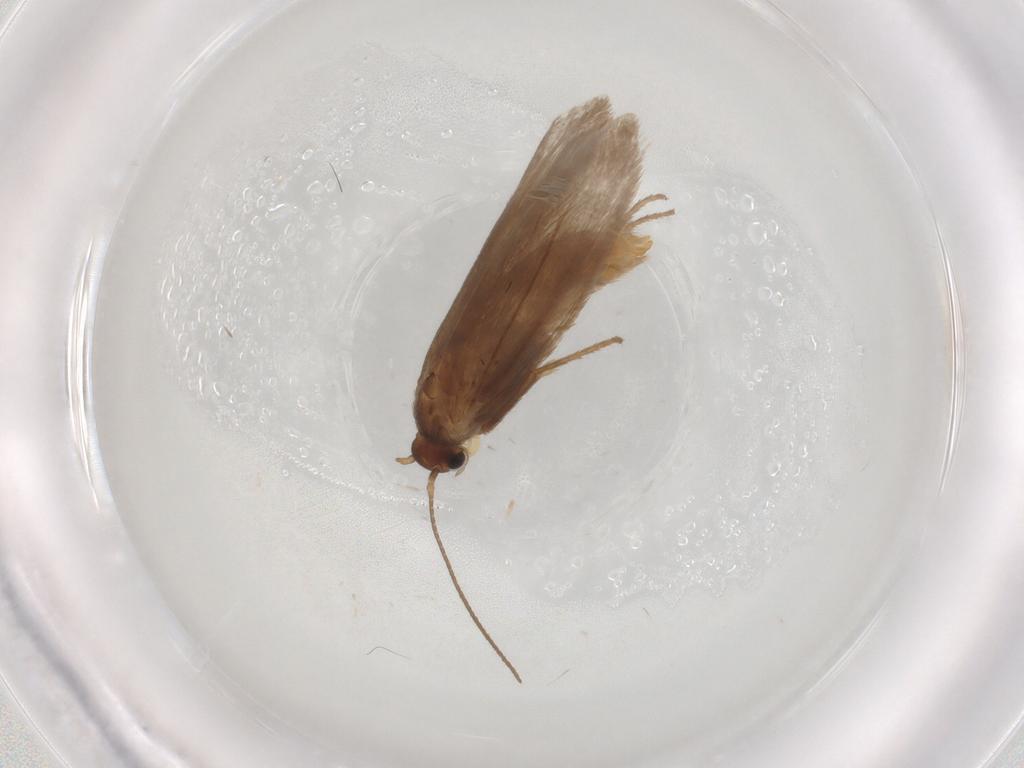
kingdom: Animalia
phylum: Arthropoda
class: Insecta
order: Lepidoptera
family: Limacodidae
